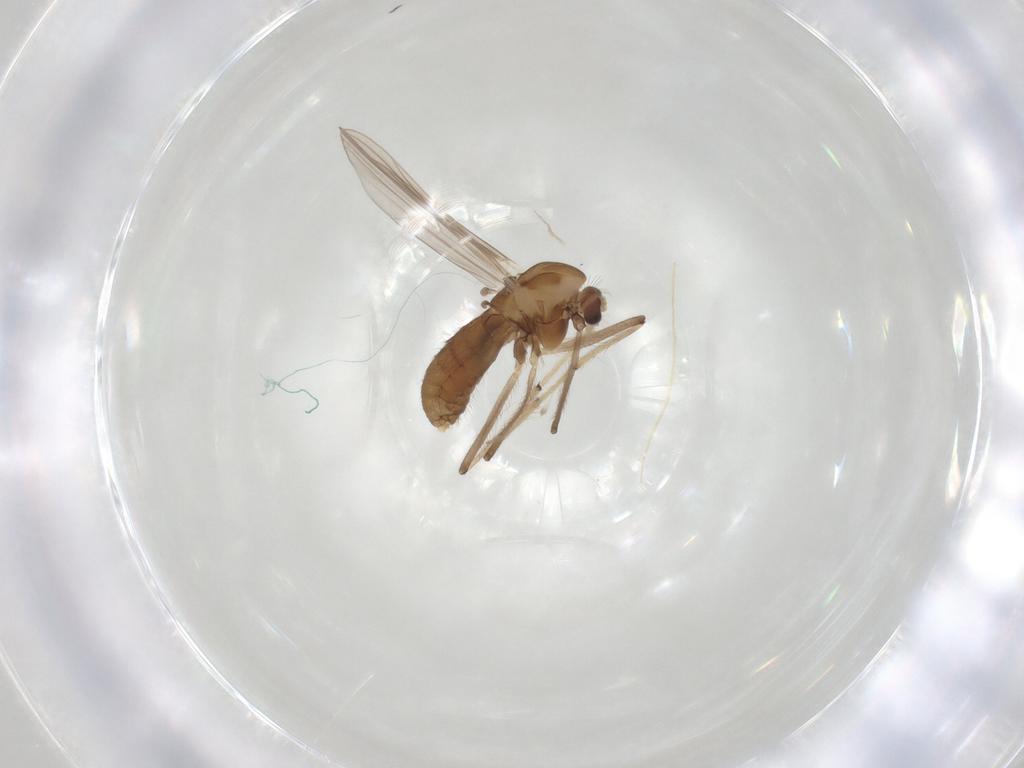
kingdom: Animalia
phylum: Arthropoda
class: Insecta
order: Diptera
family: Chironomidae
